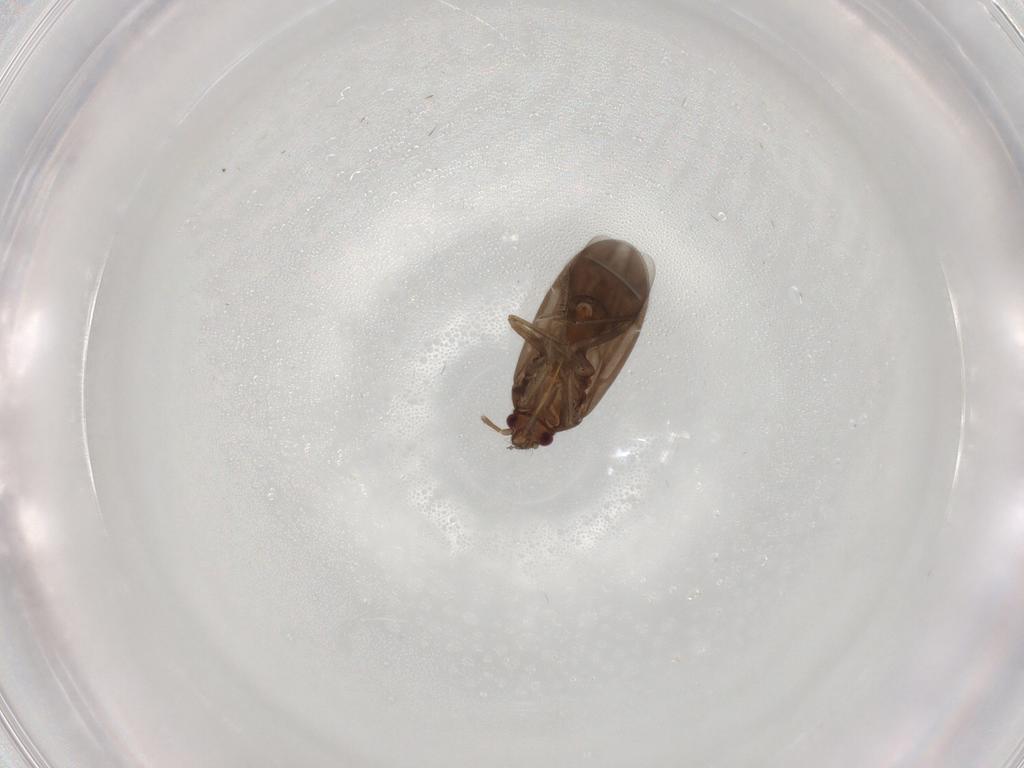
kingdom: Animalia
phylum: Arthropoda
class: Insecta
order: Hemiptera
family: Ceratocombidae
